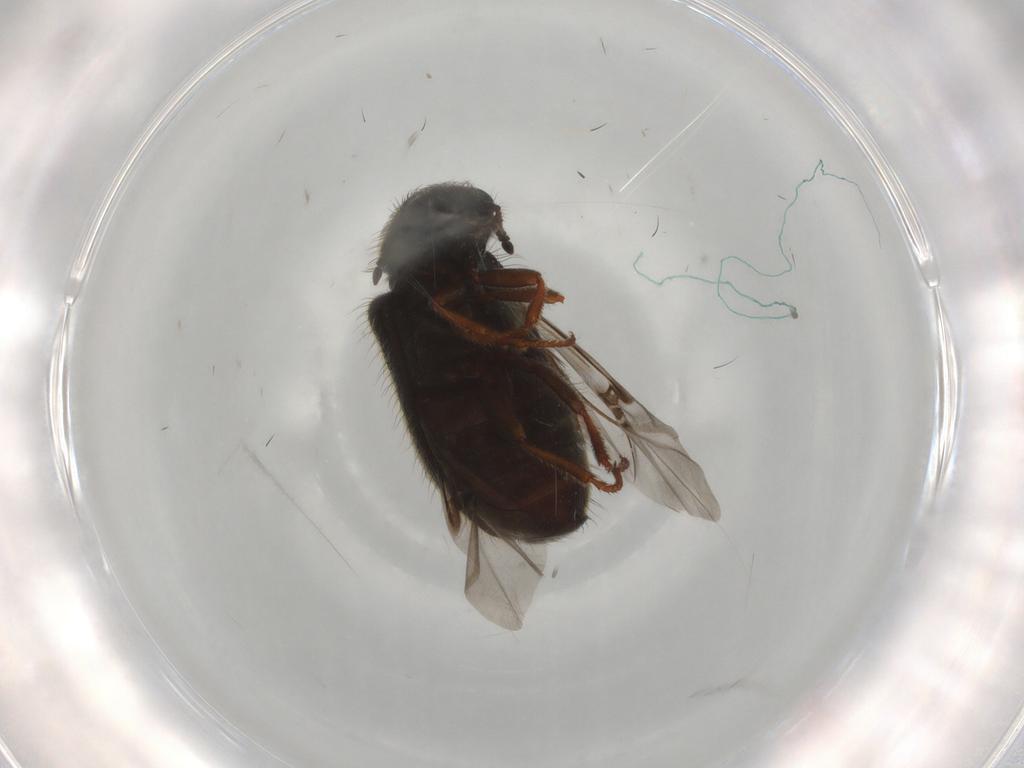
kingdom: Animalia
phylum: Arthropoda
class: Insecta
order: Coleoptera
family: Melyridae
